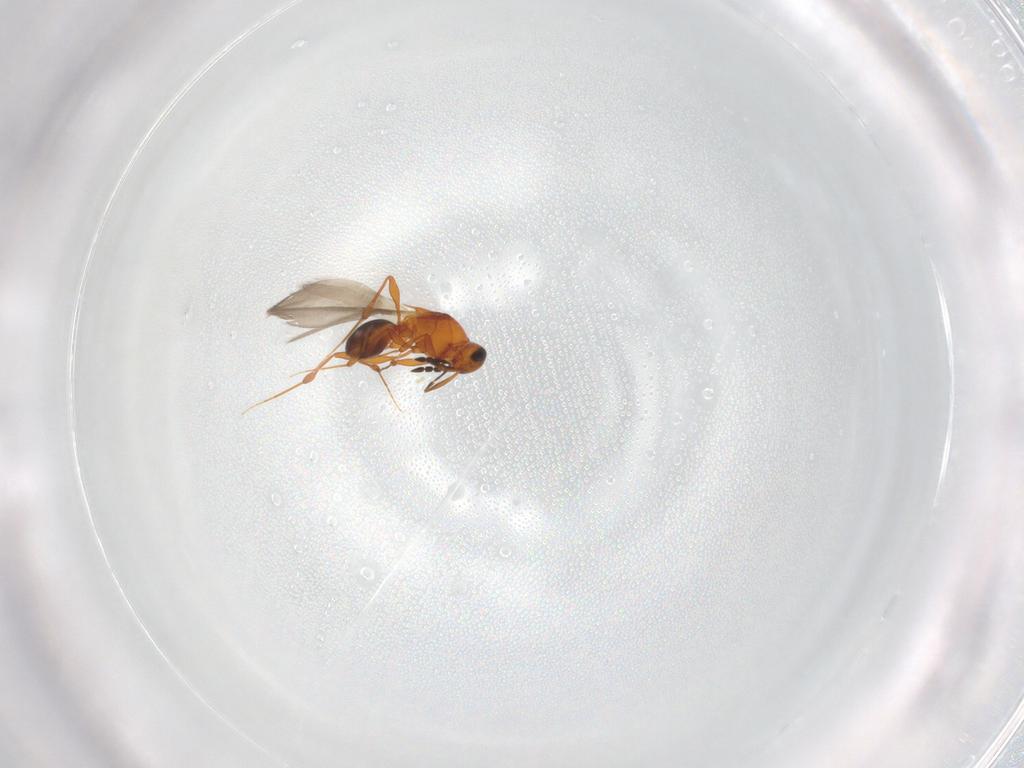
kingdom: Animalia
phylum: Arthropoda
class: Insecta
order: Hymenoptera
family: Platygastridae
